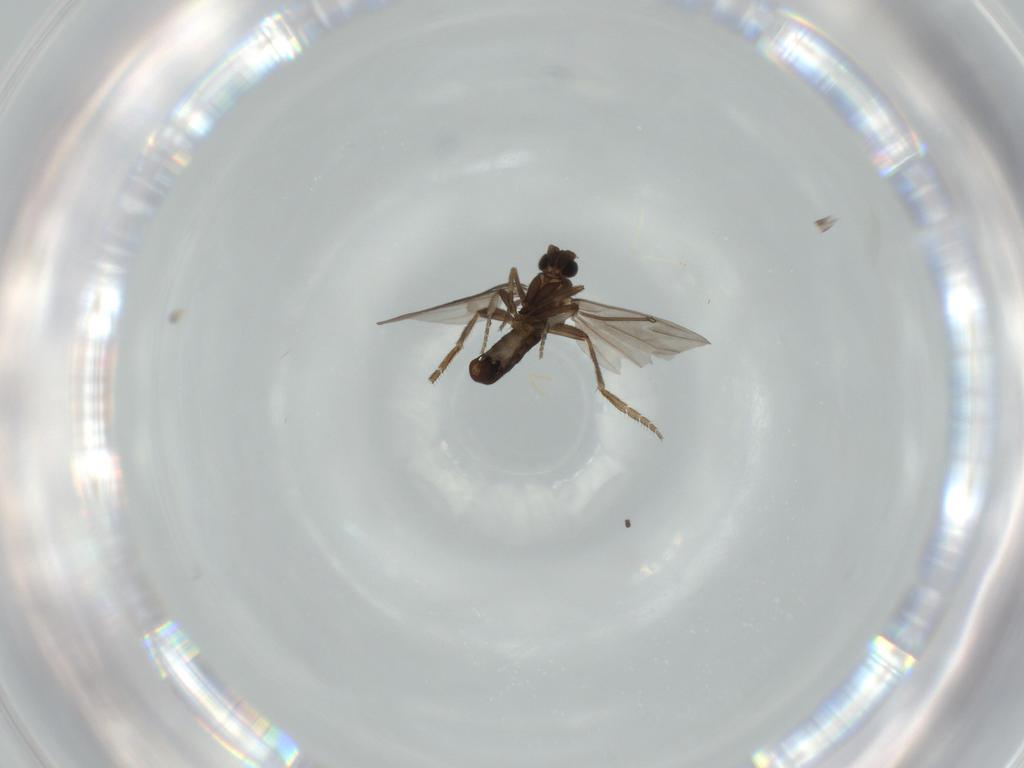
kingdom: Animalia
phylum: Arthropoda
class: Insecta
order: Diptera
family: Phoridae
